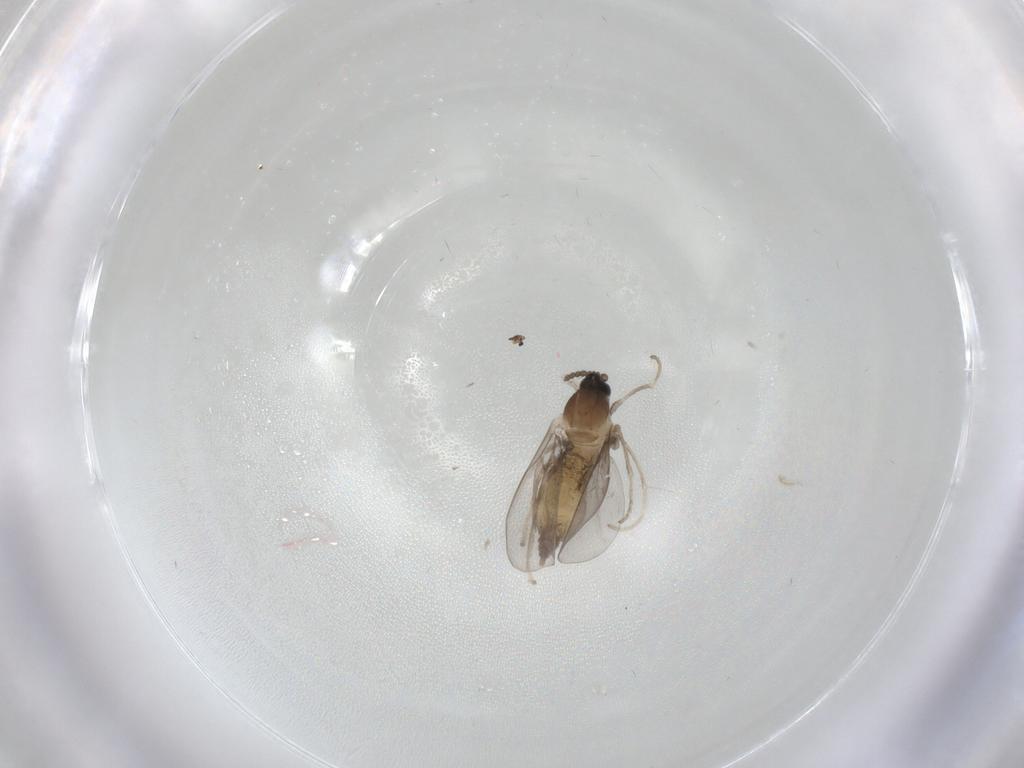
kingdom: Animalia
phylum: Arthropoda
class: Insecta
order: Diptera
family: Cecidomyiidae
